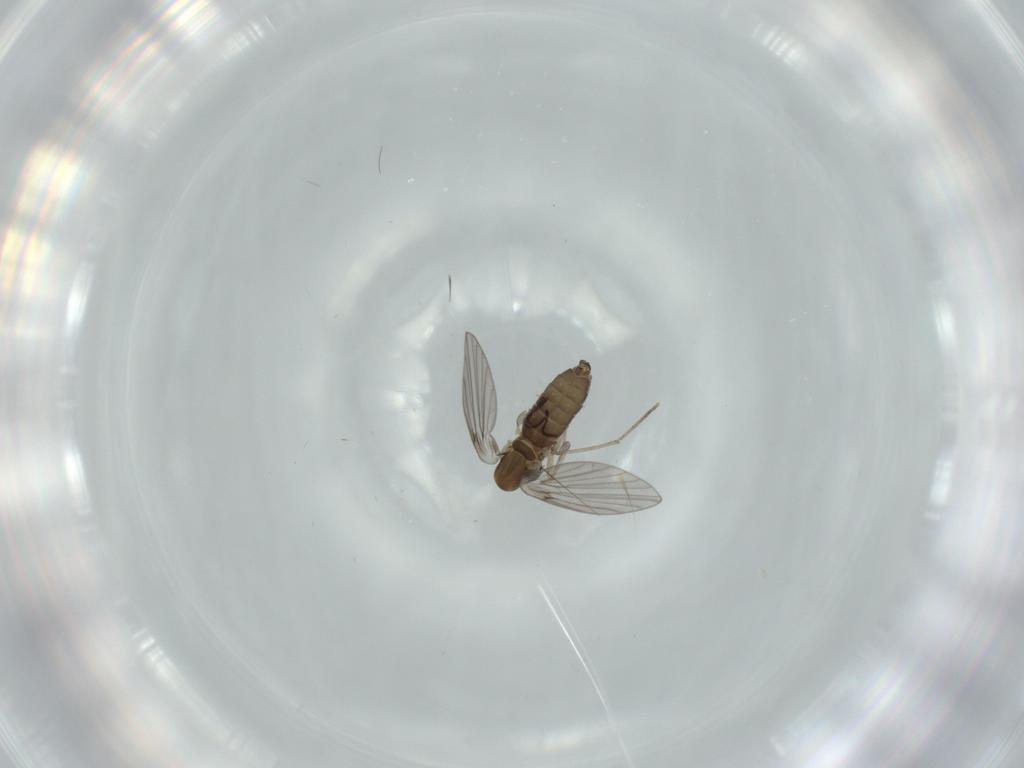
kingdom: Animalia
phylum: Arthropoda
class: Insecta
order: Diptera
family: Psychodidae
